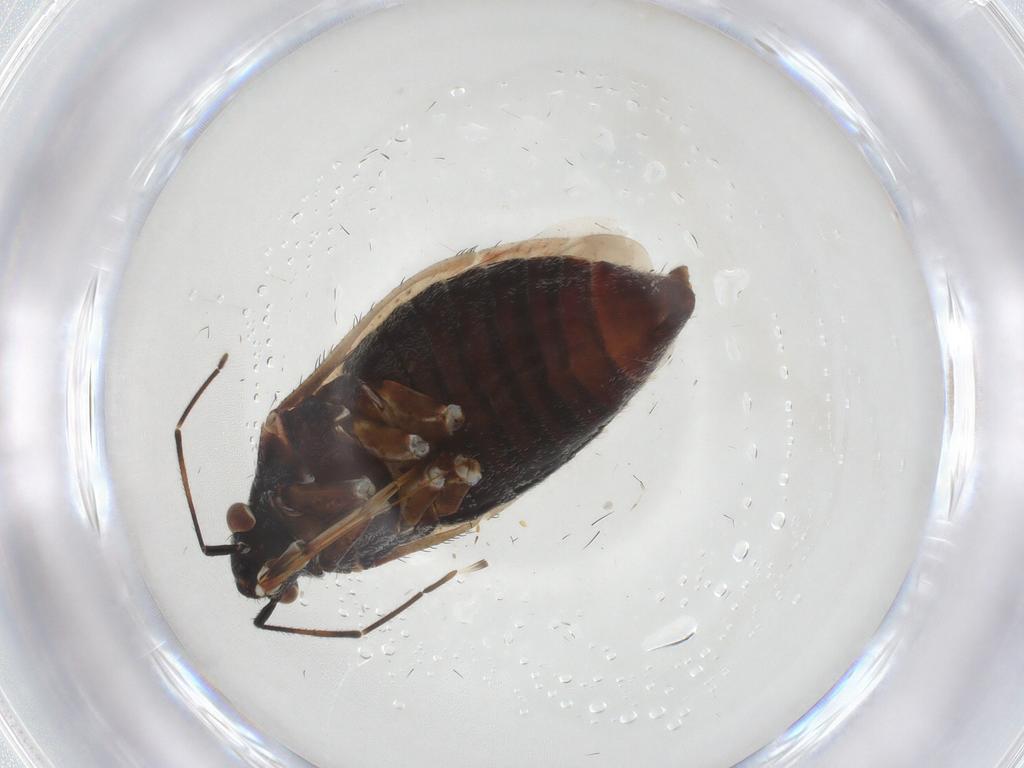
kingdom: Animalia
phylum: Arthropoda
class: Insecta
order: Hemiptera
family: Miridae
